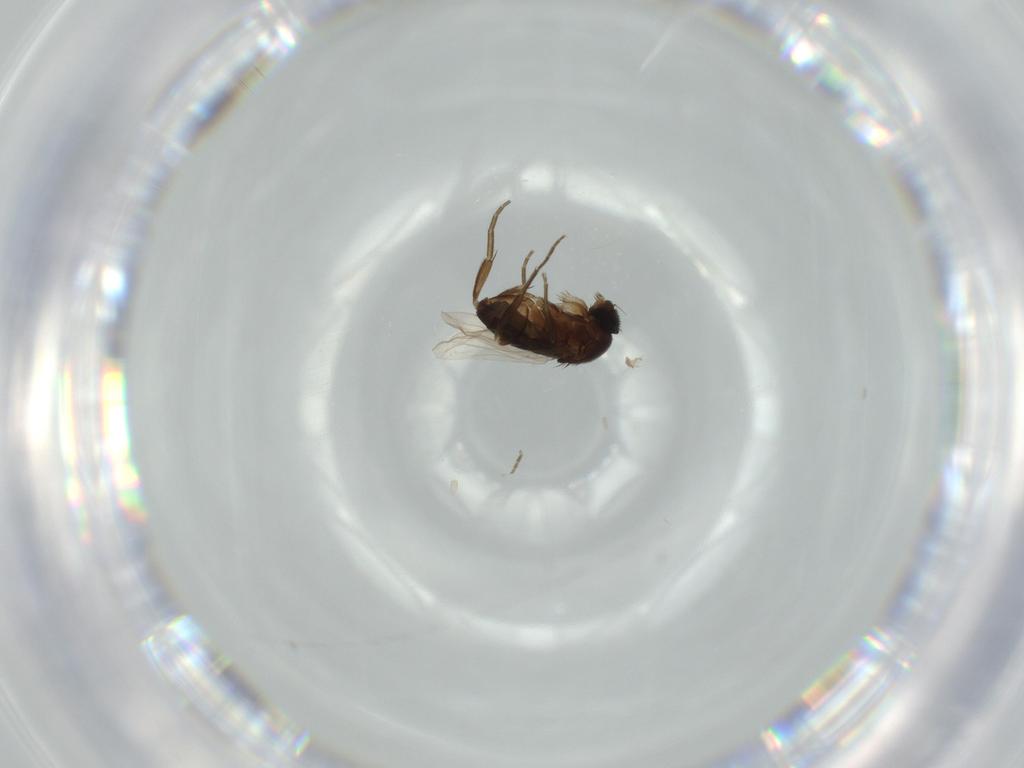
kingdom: Animalia
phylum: Arthropoda
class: Insecta
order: Diptera
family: Phoridae
